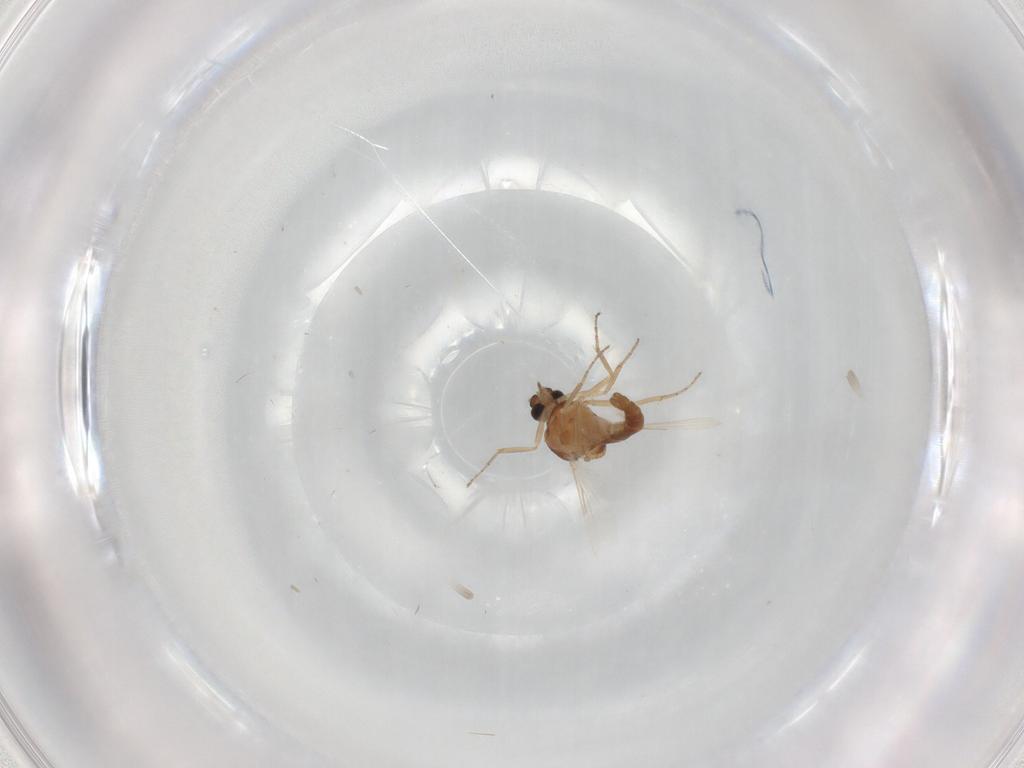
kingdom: Animalia
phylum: Arthropoda
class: Insecta
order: Diptera
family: Ceratopogonidae
